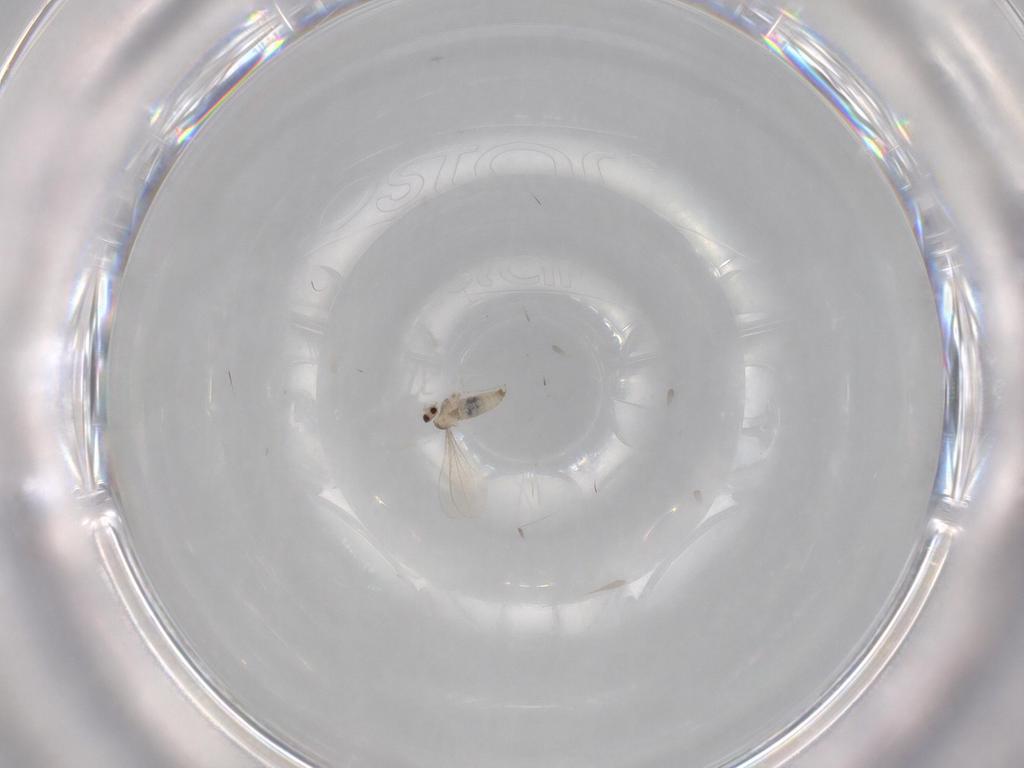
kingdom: Animalia
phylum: Arthropoda
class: Insecta
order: Diptera
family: Cecidomyiidae
